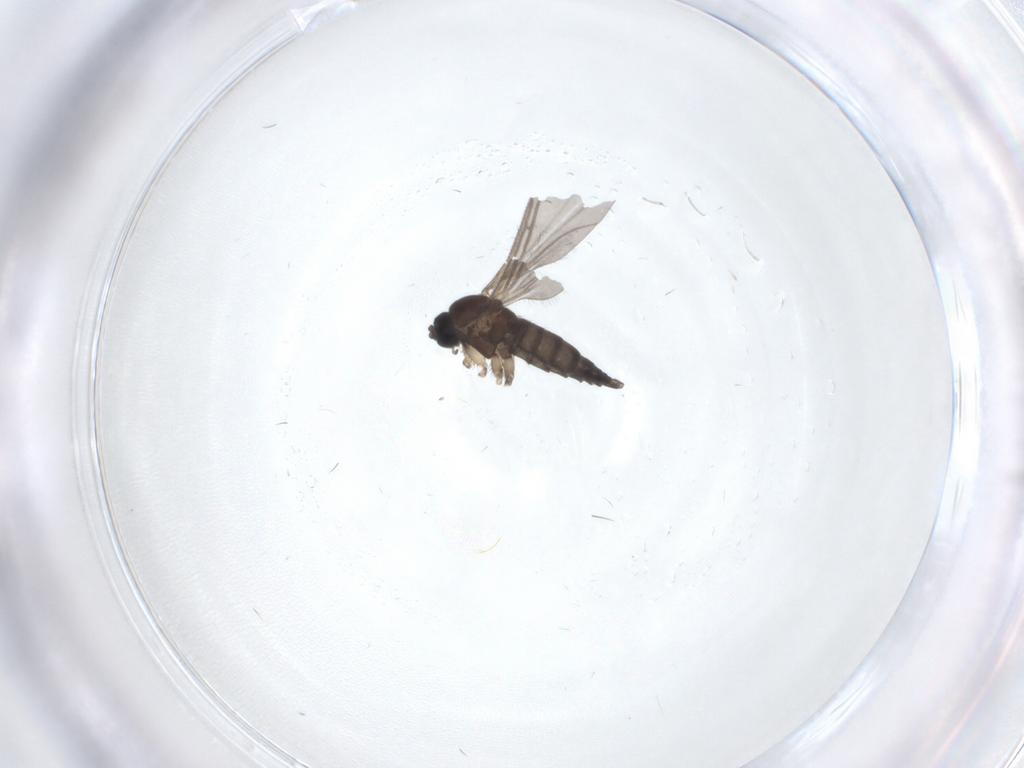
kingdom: Animalia
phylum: Arthropoda
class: Insecta
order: Diptera
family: Sciaridae
